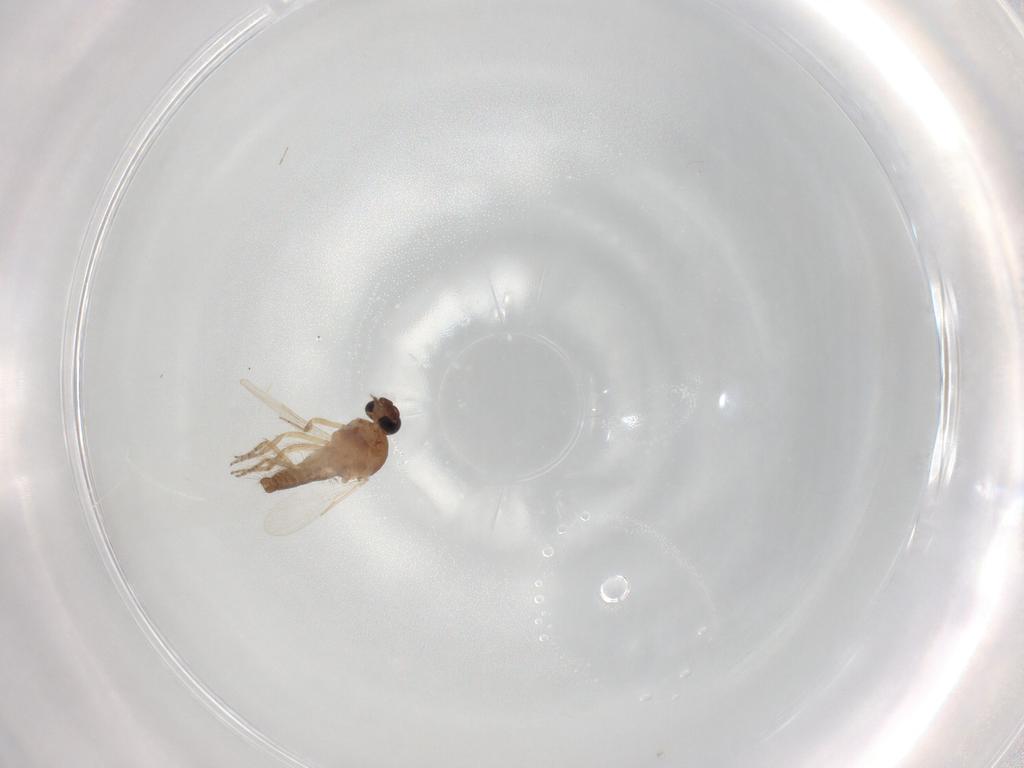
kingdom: Animalia
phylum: Arthropoda
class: Insecta
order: Diptera
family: Ceratopogonidae
